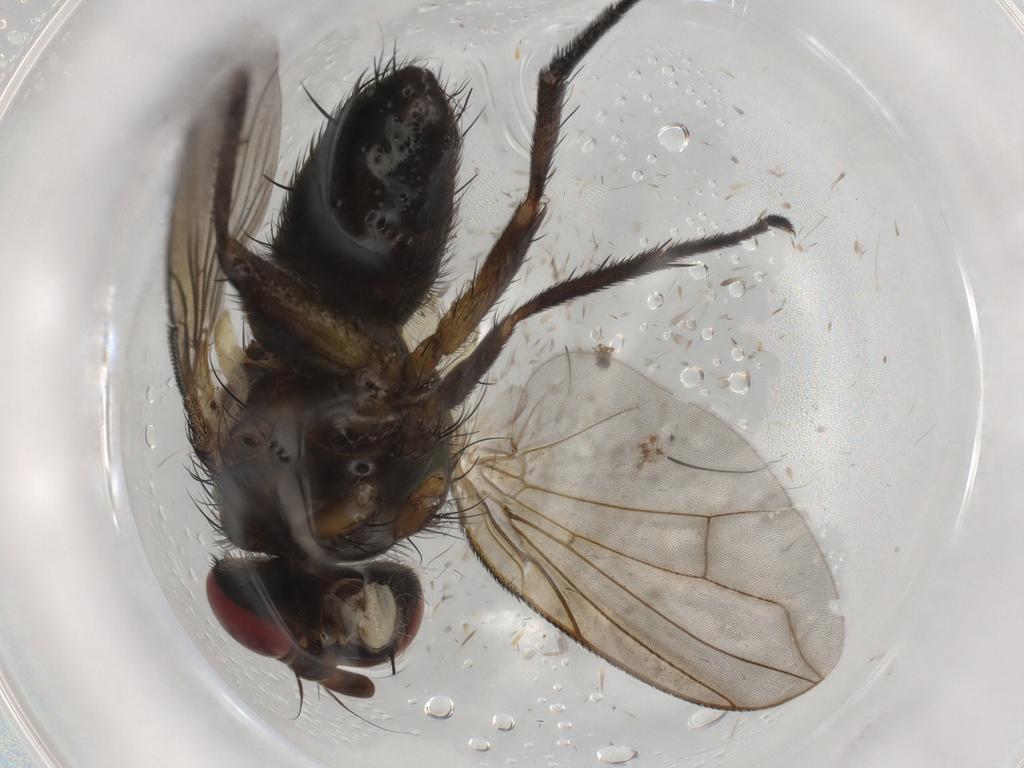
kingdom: Animalia
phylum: Arthropoda
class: Insecta
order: Diptera
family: Tachinidae
